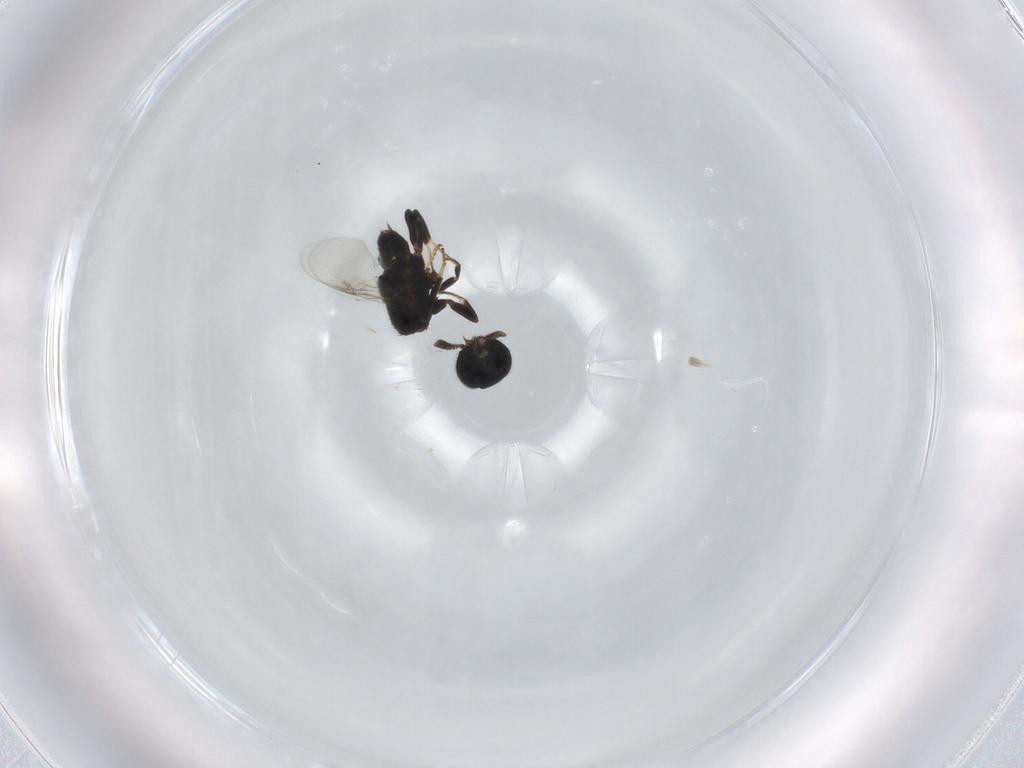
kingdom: Animalia
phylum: Arthropoda
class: Insecta
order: Hymenoptera
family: Encyrtidae
